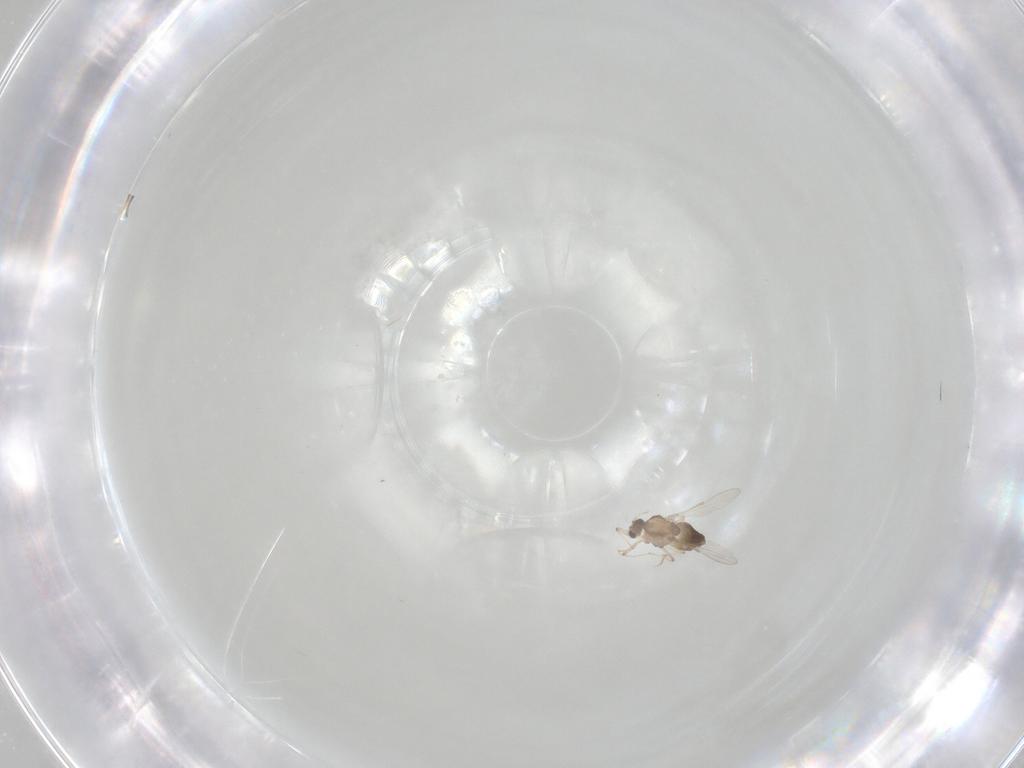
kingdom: Animalia
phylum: Arthropoda
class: Insecta
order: Diptera
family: Chironomidae
